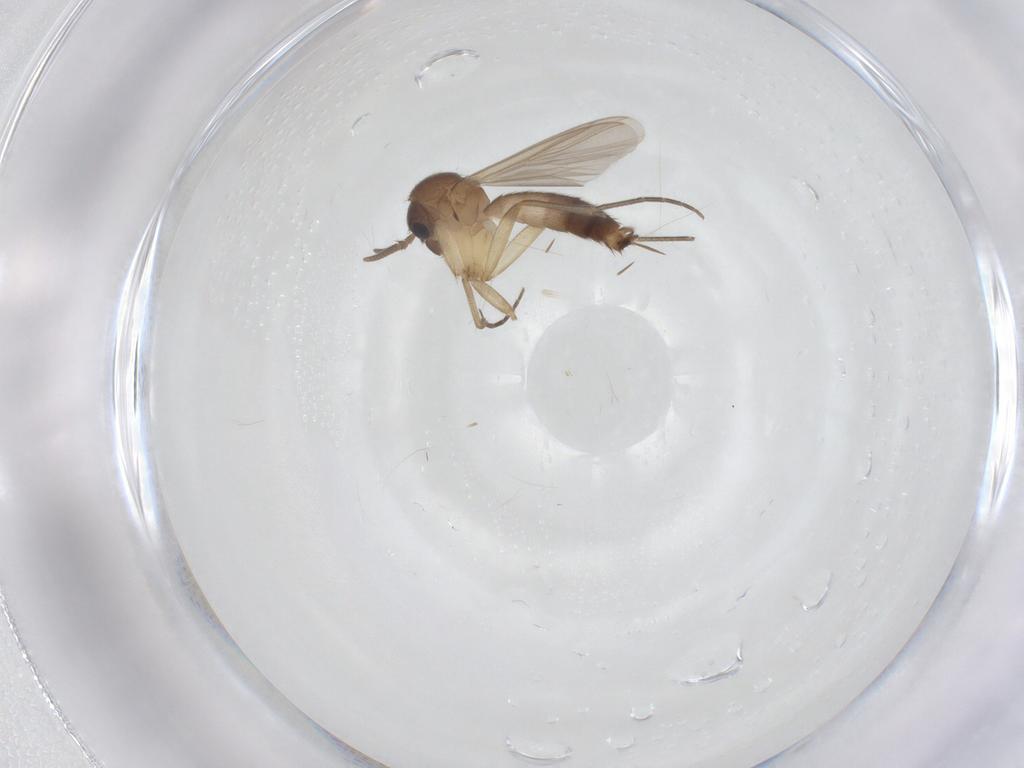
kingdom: Animalia
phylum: Arthropoda
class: Insecta
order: Diptera
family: Mycetophilidae
